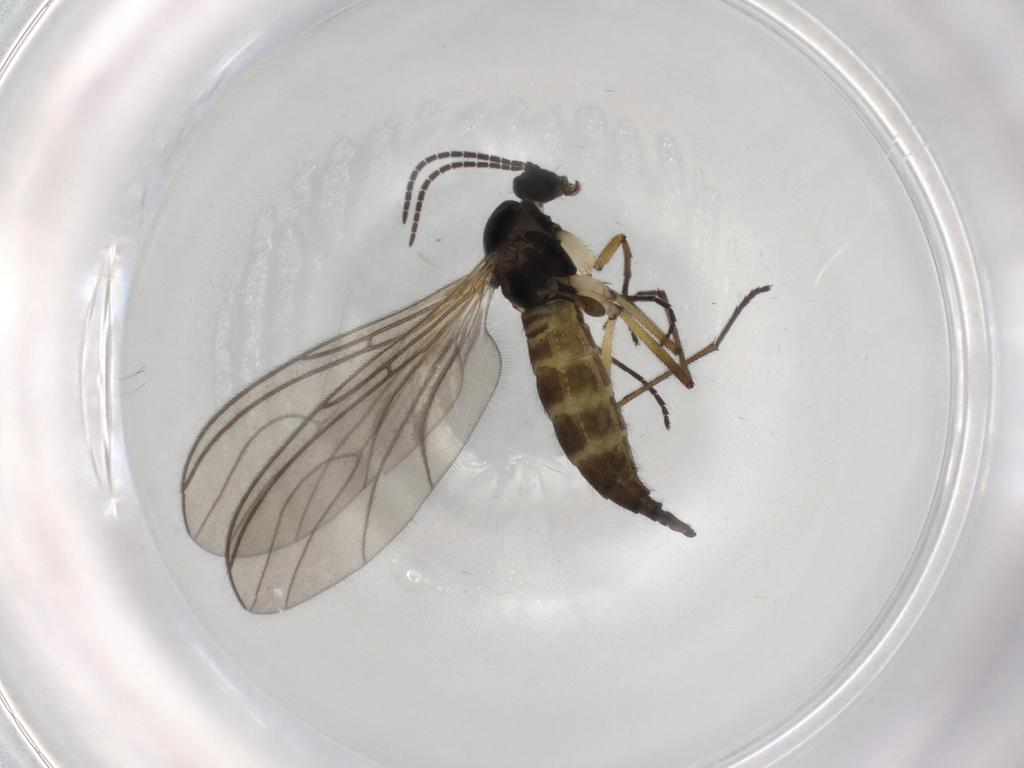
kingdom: Animalia
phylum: Arthropoda
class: Insecta
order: Diptera
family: Sciaridae
